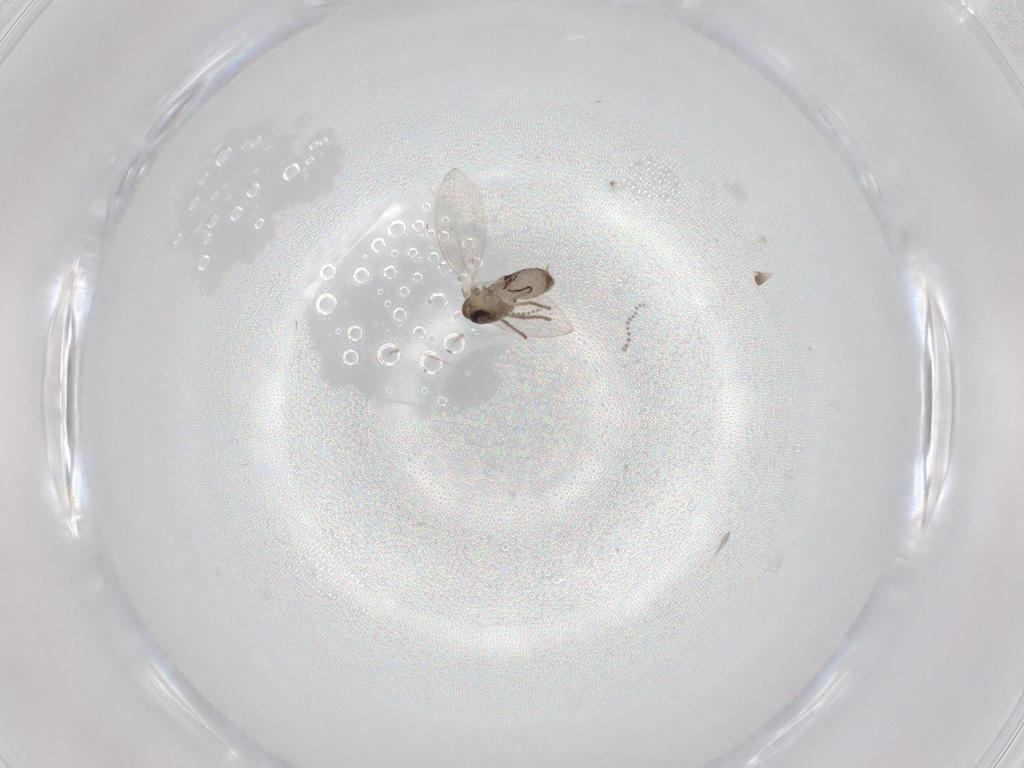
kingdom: Animalia
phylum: Arthropoda
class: Insecta
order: Diptera
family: Psychodidae
